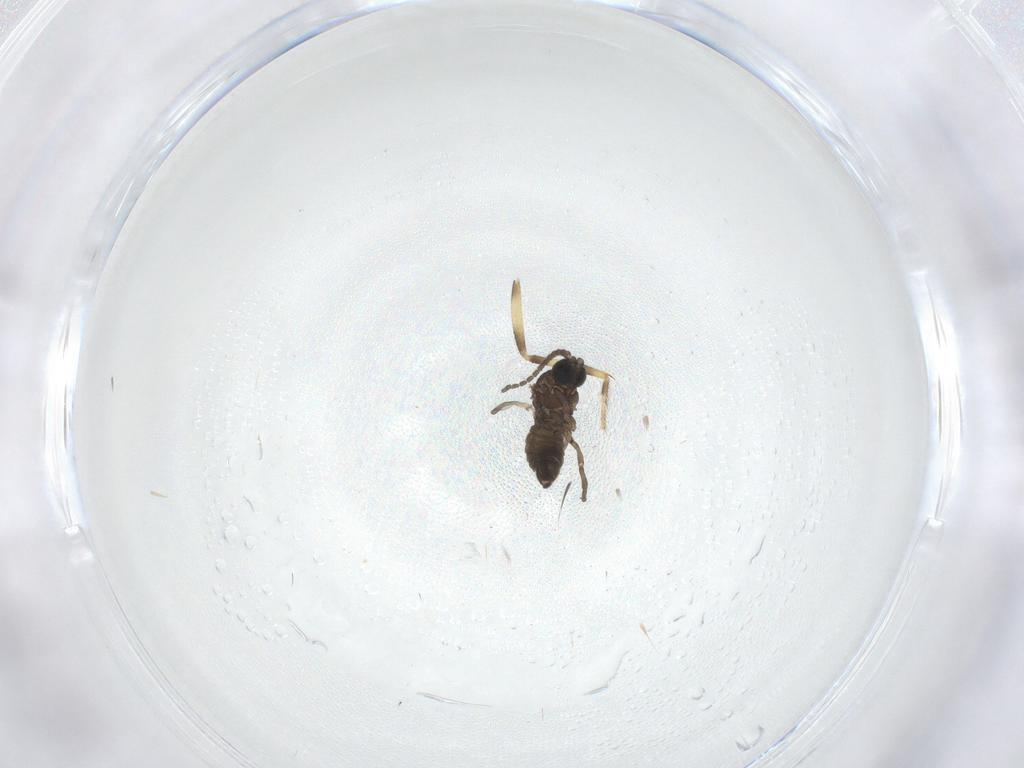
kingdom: Animalia
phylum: Arthropoda
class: Insecta
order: Diptera
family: Sciaridae
